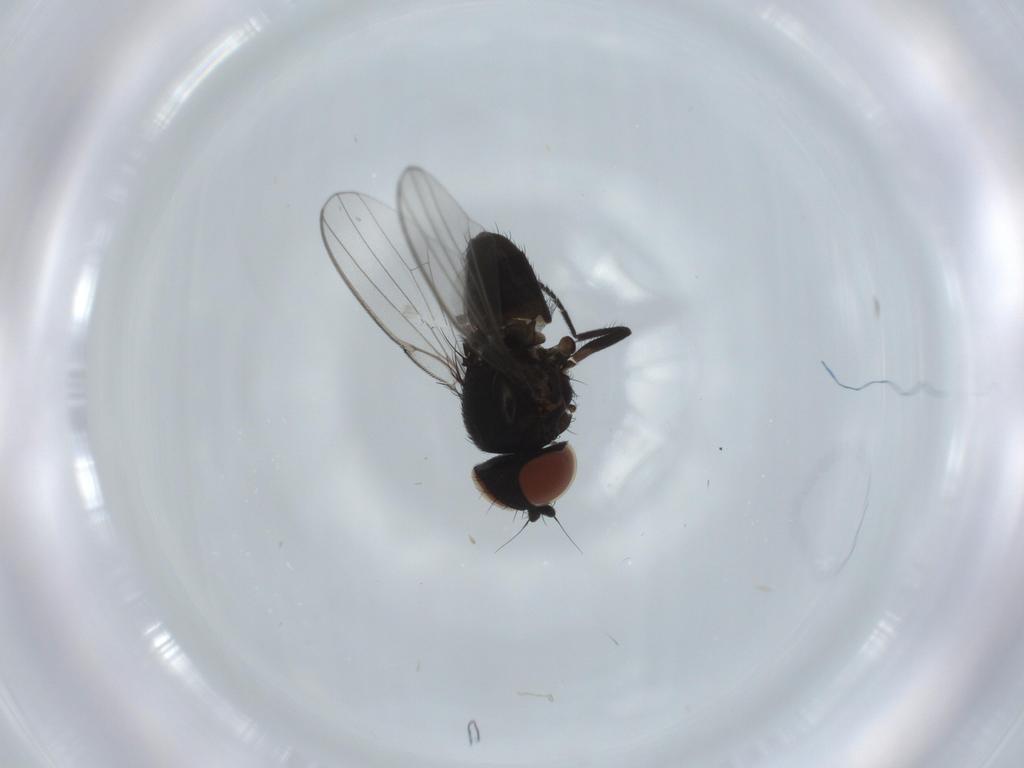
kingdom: Animalia
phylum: Arthropoda
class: Insecta
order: Diptera
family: Milichiidae
